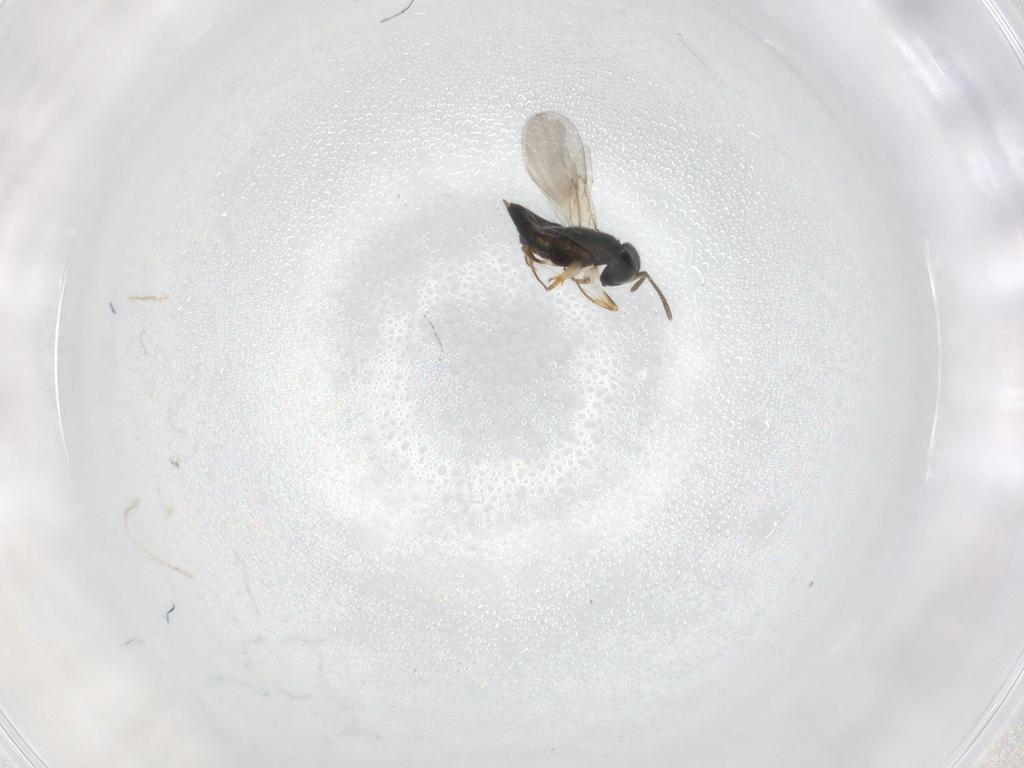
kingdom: Animalia
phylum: Arthropoda
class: Insecta
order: Hymenoptera
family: Encyrtidae
